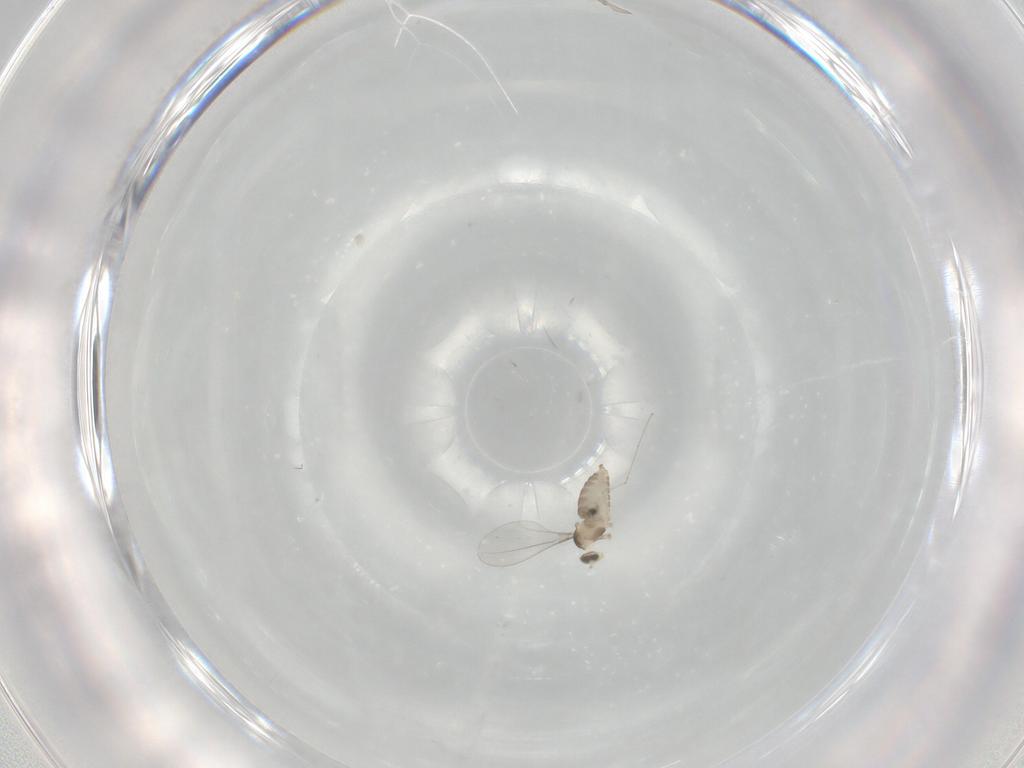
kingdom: Animalia
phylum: Arthropoda
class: Insecta
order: Diptera
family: Cecidomyiidae
